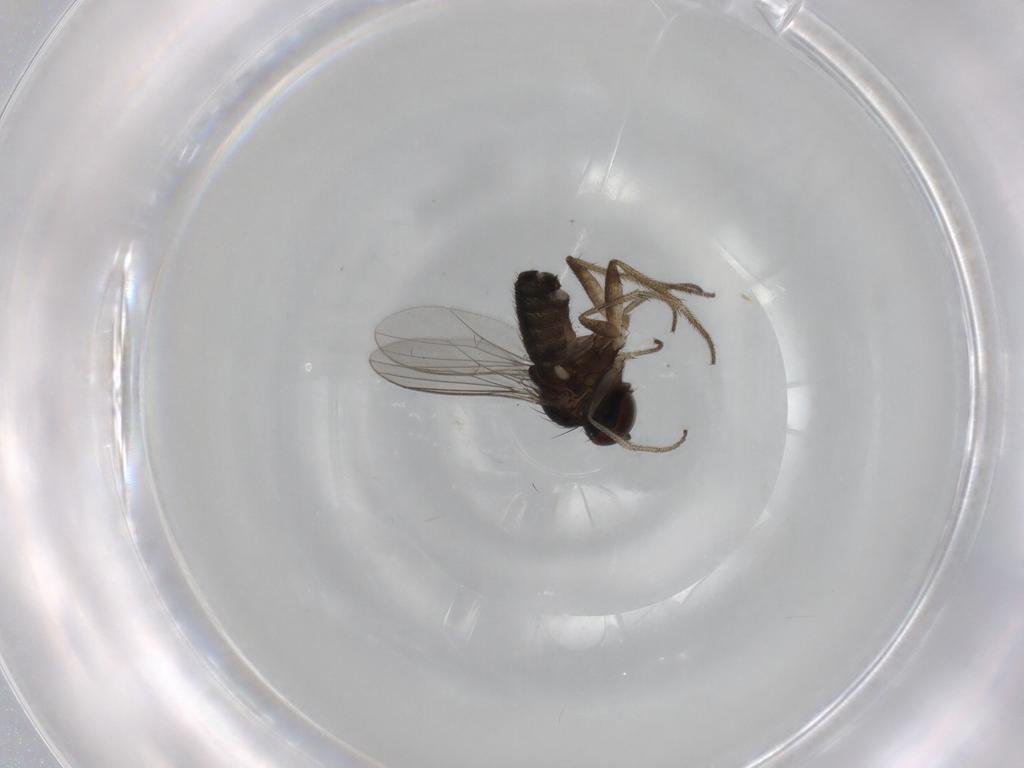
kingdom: Animalia
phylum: Arthropoda
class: Insecta
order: Diptera
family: Dolichopodidae
